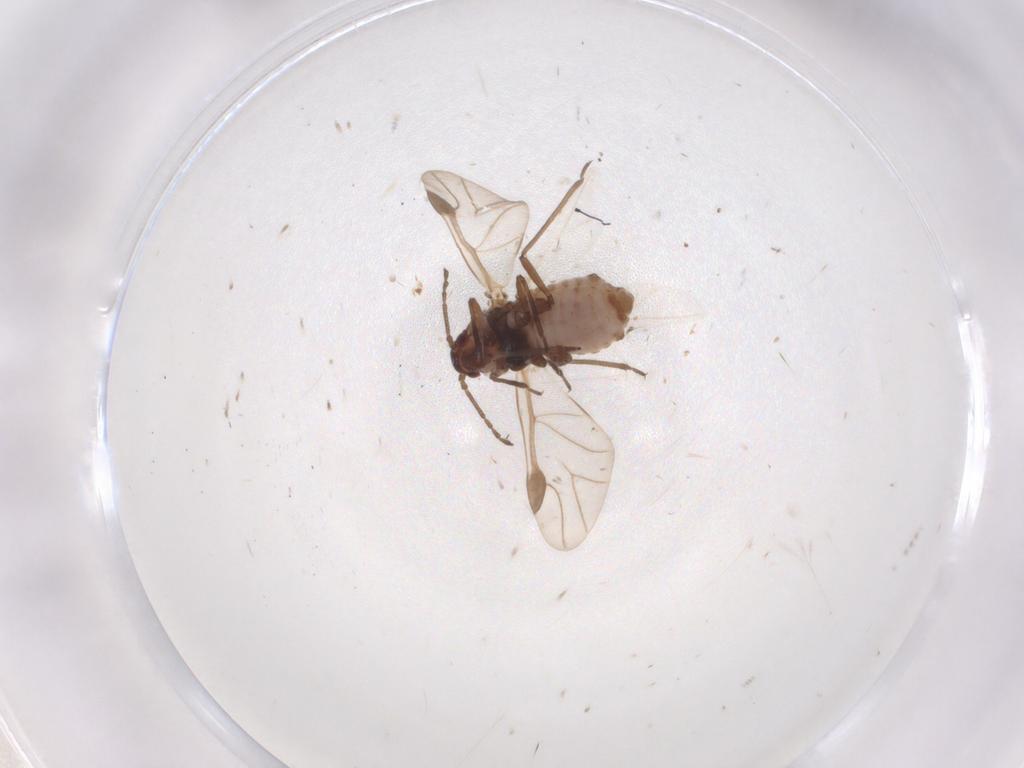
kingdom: Animalia
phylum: Arthropoda
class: Insecta
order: Hemiptera
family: Aphididae
